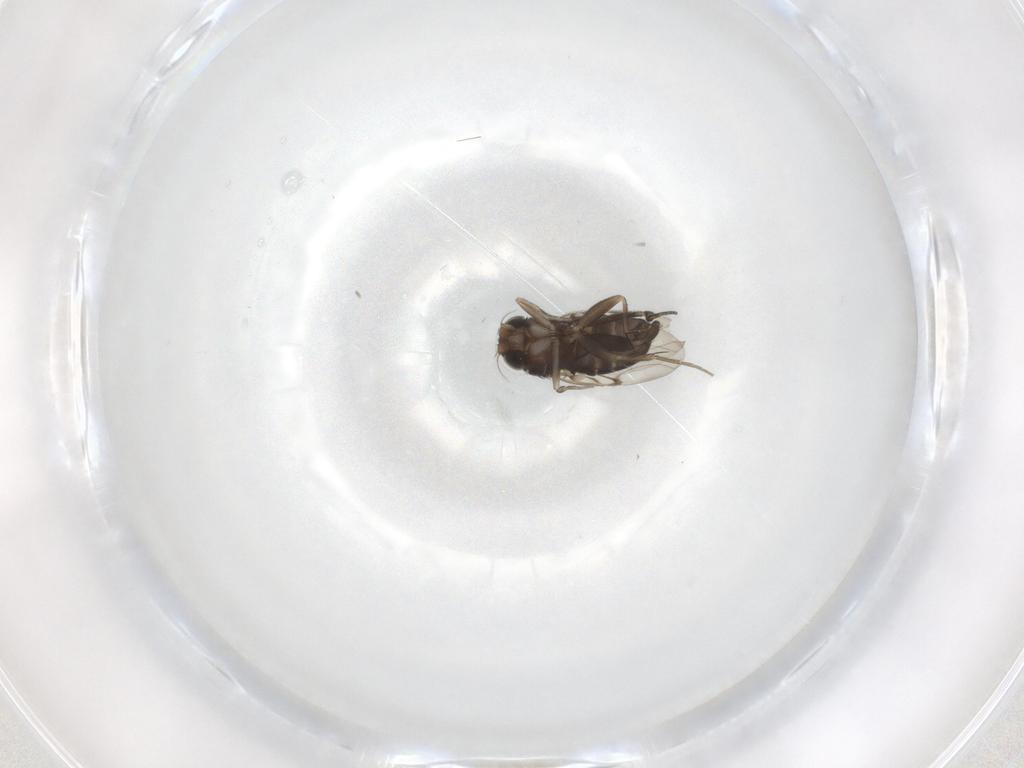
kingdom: Animalia
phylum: Arthropoda
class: Insecta
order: Diptera
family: Phoridae
